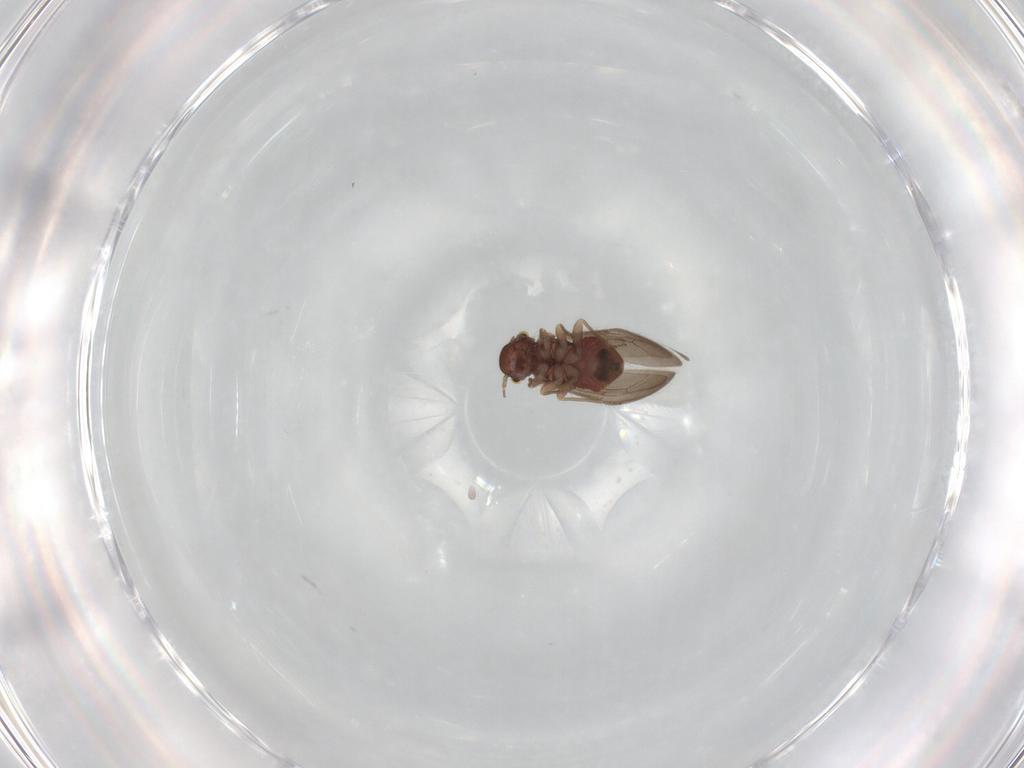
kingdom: Animalia
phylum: Arthropoda
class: Insecta
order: Psocodea
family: Archipsocidae
